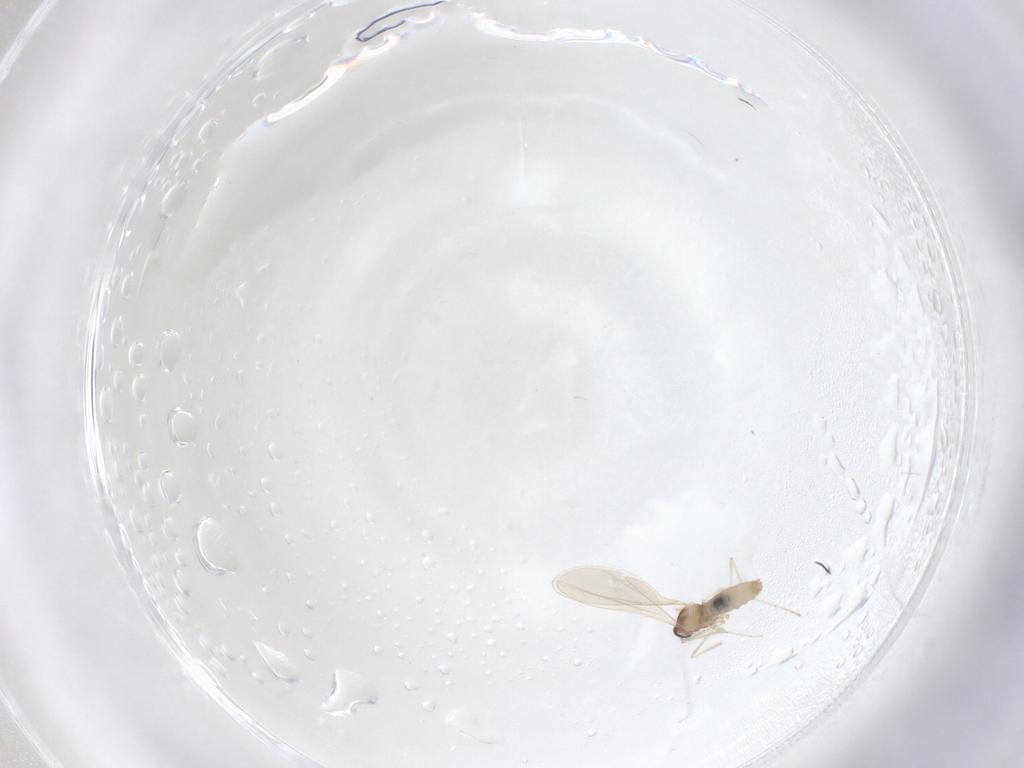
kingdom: Animalia
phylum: Arthropoda
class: Insecta
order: Diptera
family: Cecidomyiidae
